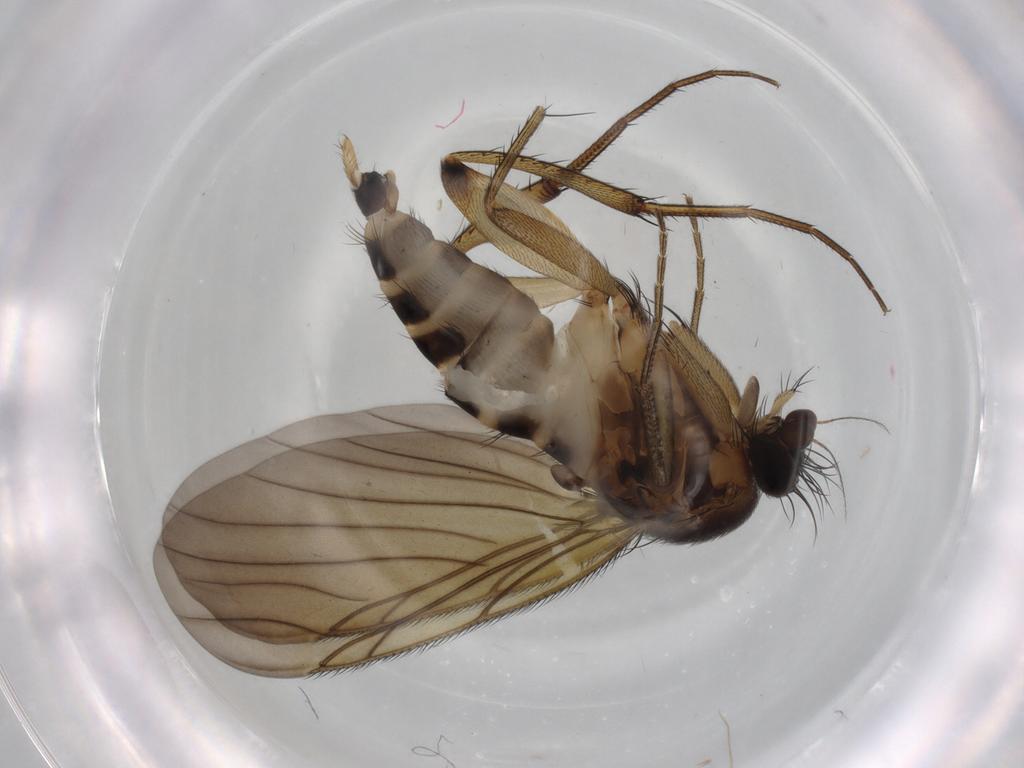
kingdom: Animalia
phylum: Arthropoda
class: Insecta
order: Diptera
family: Phoridae
